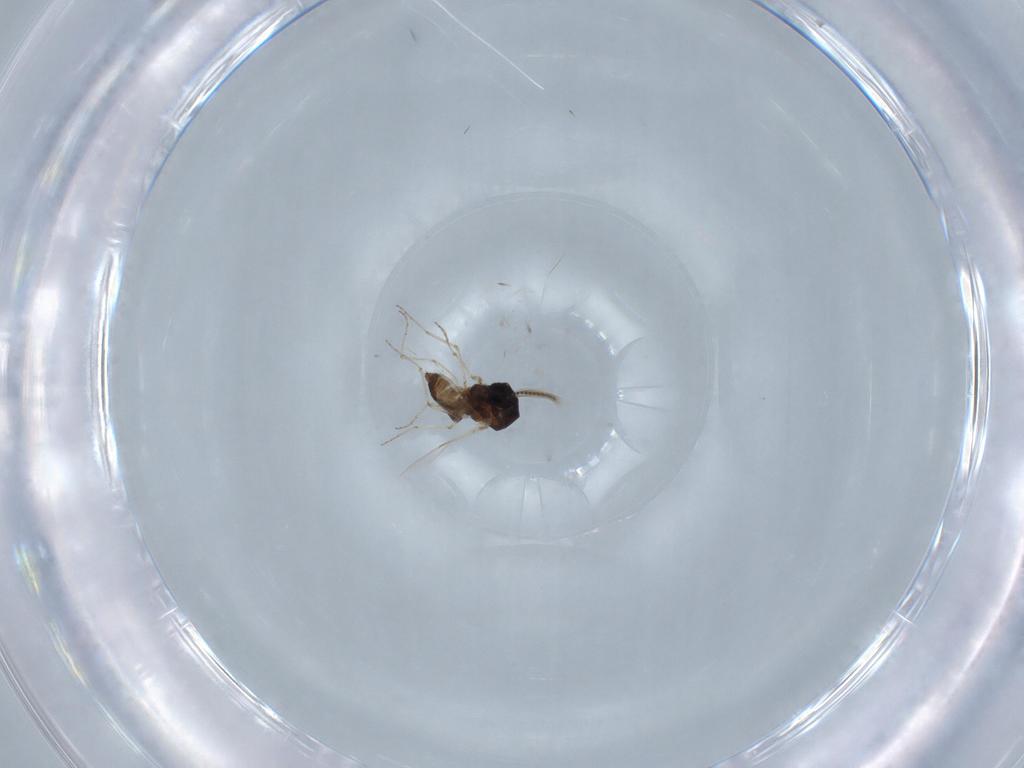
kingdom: Animalia
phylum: Arthropoda
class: Insecta
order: Diptera
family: Ceratopogonidae
